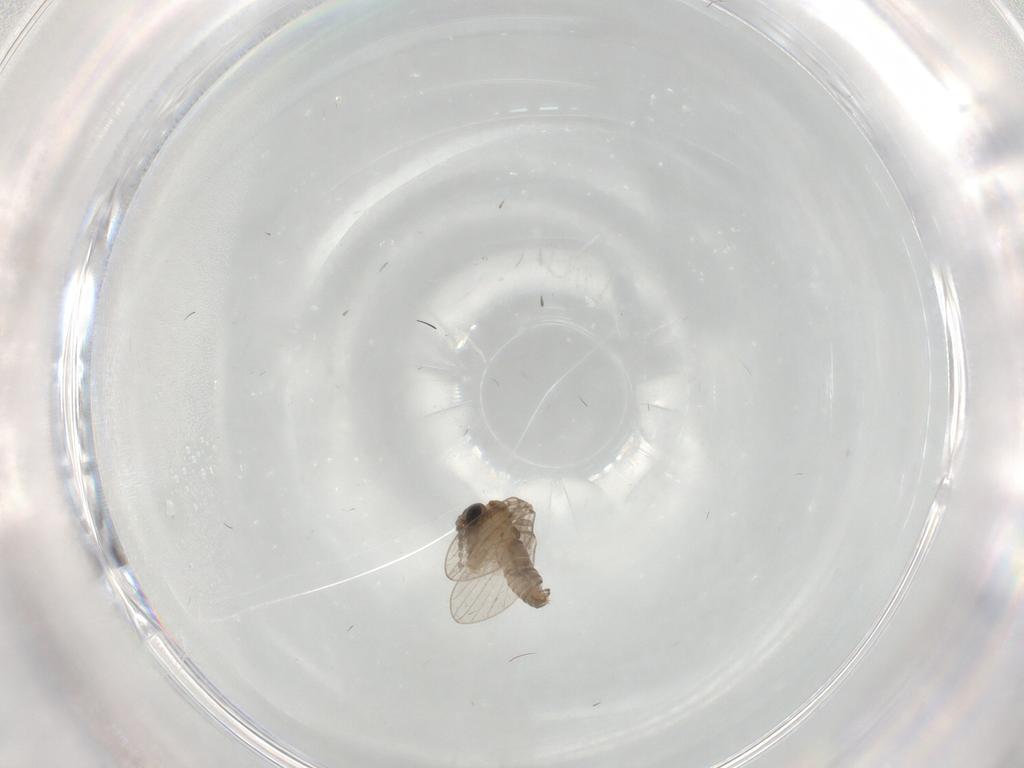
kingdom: Animalia
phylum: Arthropoda
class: Insecta
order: Diptera
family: Psychodidae
